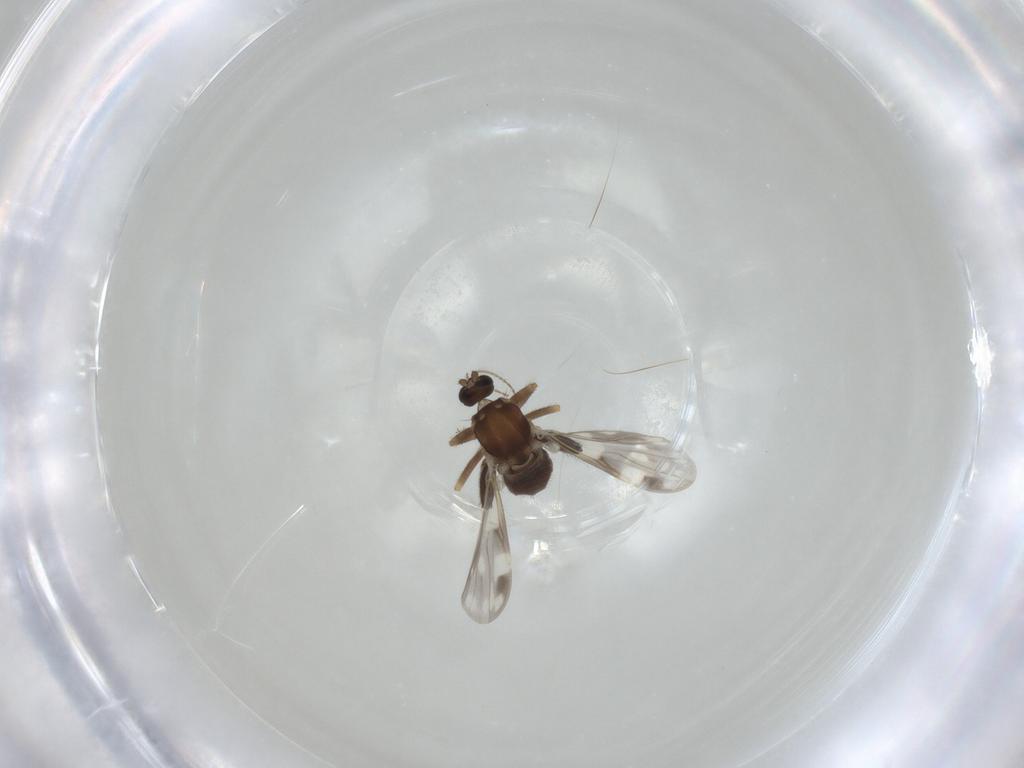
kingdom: Animalia
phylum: Arthropoda
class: Insecta
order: Diptera
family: Ceratopogonidae
